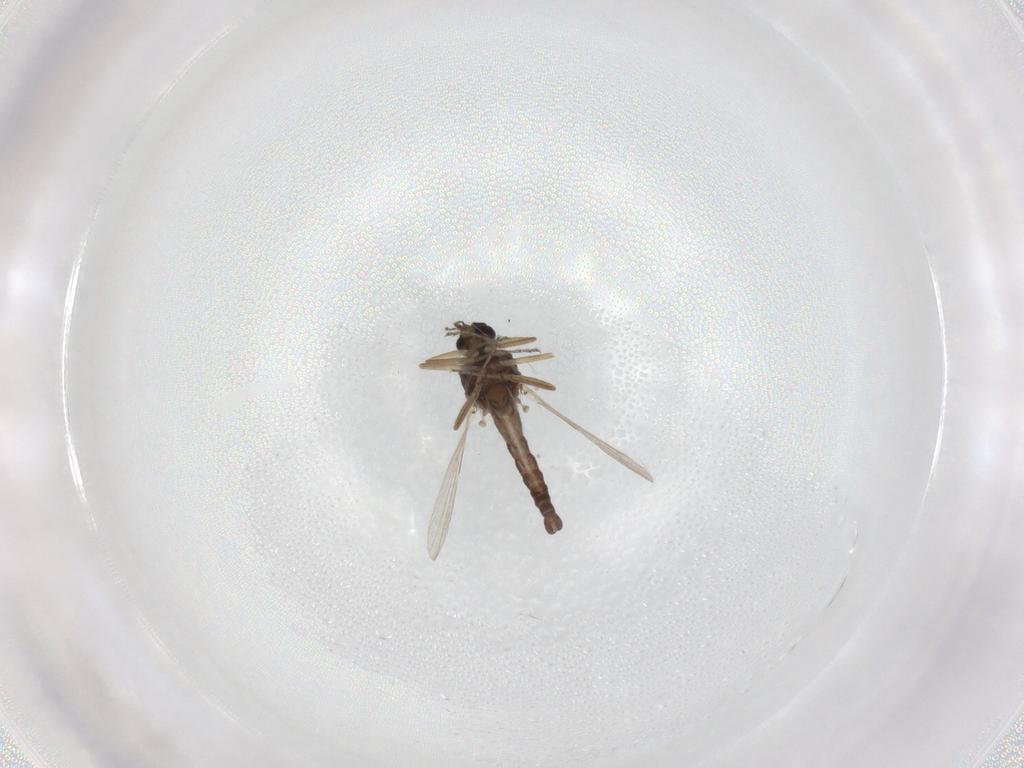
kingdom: Animalia
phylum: Arthropoda
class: Insecta
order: Diptera
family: Ceratopogonidae
